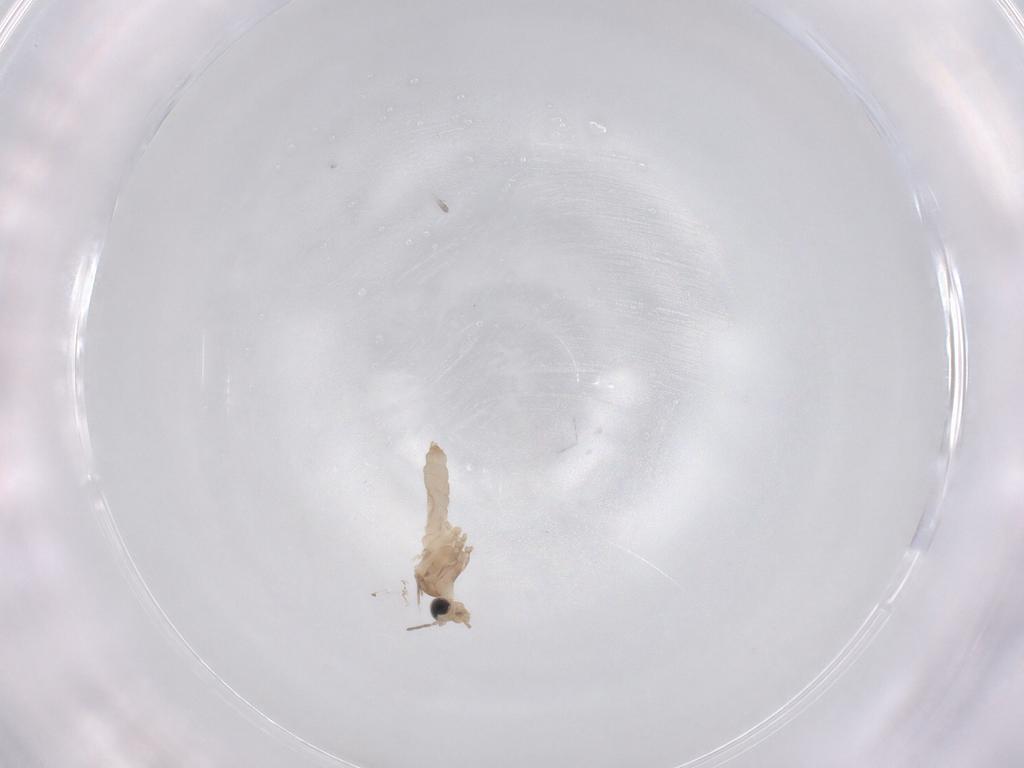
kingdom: Animalia
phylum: Arthropoda
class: Insecta
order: Diptera
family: Cecidomyiidae
